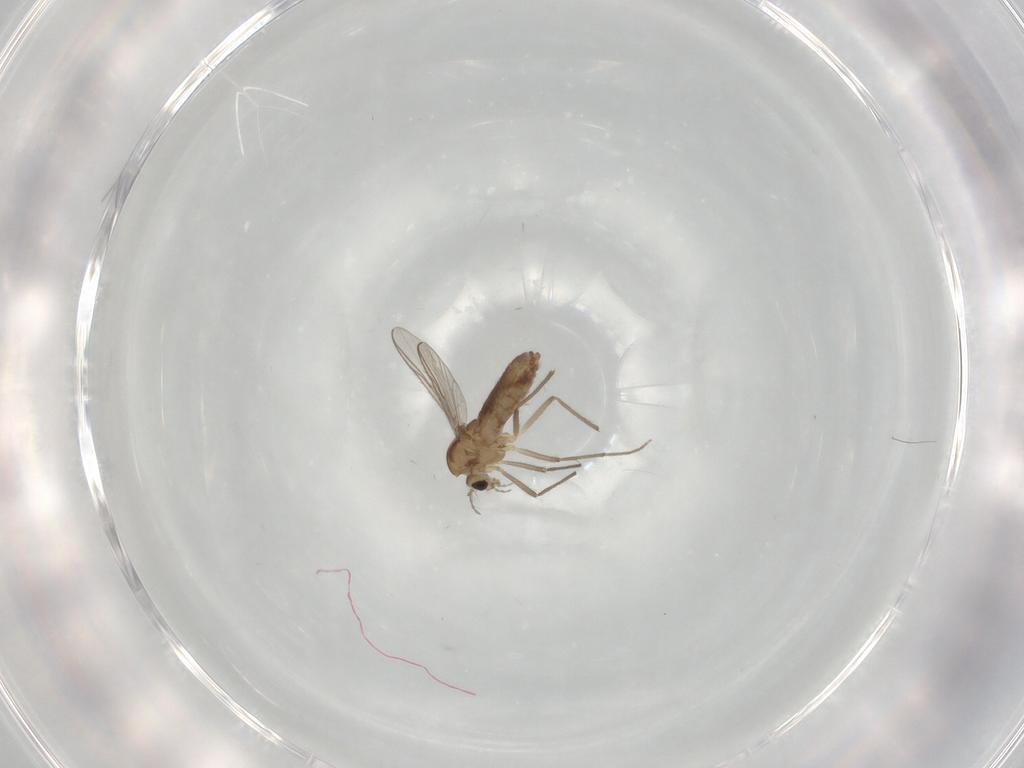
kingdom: Animalia
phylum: Arthropoda
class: Insecta
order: Diptera
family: Chironomidae
